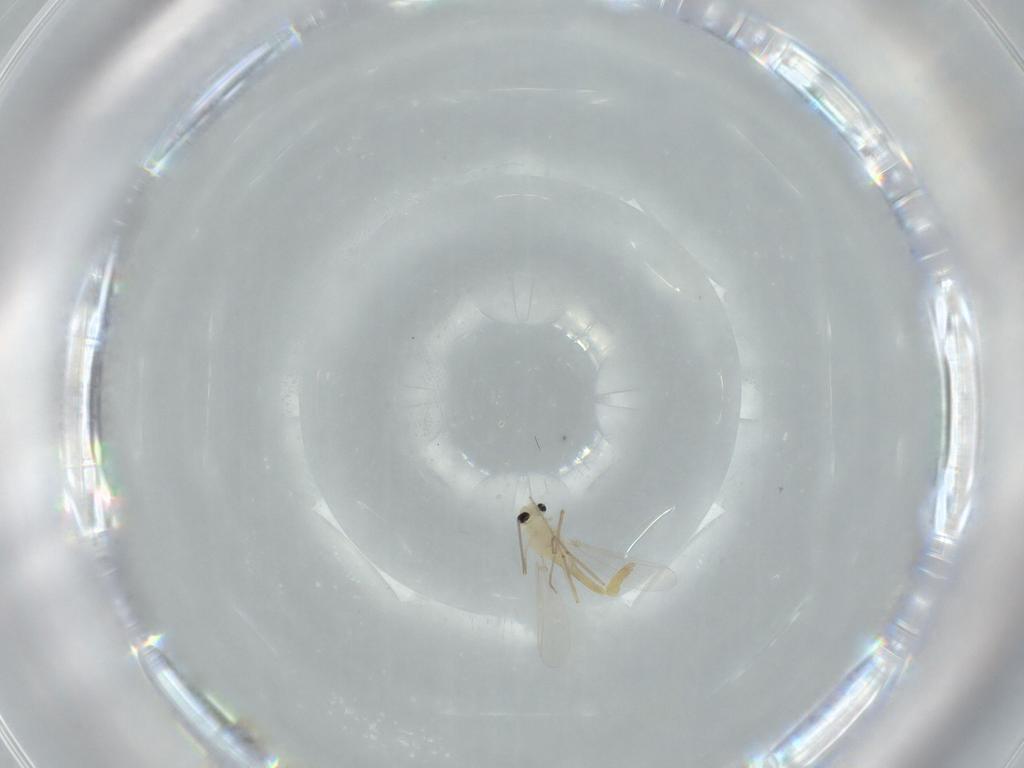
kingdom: Animalia
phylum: Arthropoda
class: Insecta
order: Diptera
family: Chironomidae
